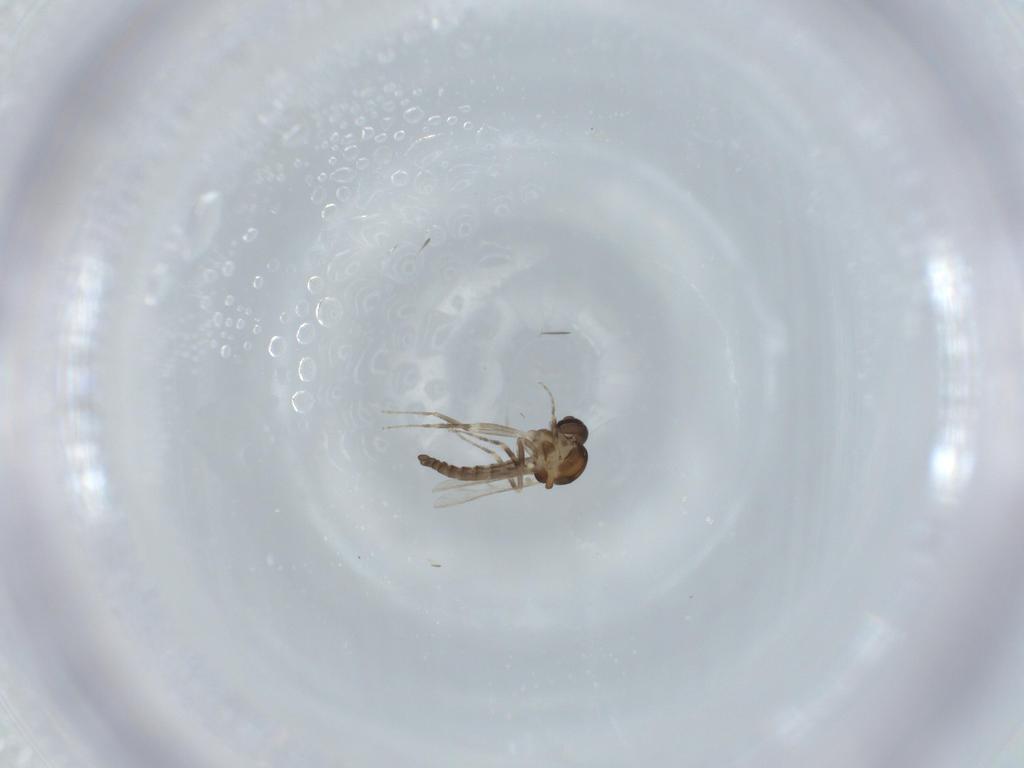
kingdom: Animalia
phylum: Arthropoda
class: Insecta
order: Diptera
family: Ceratopogonidae
